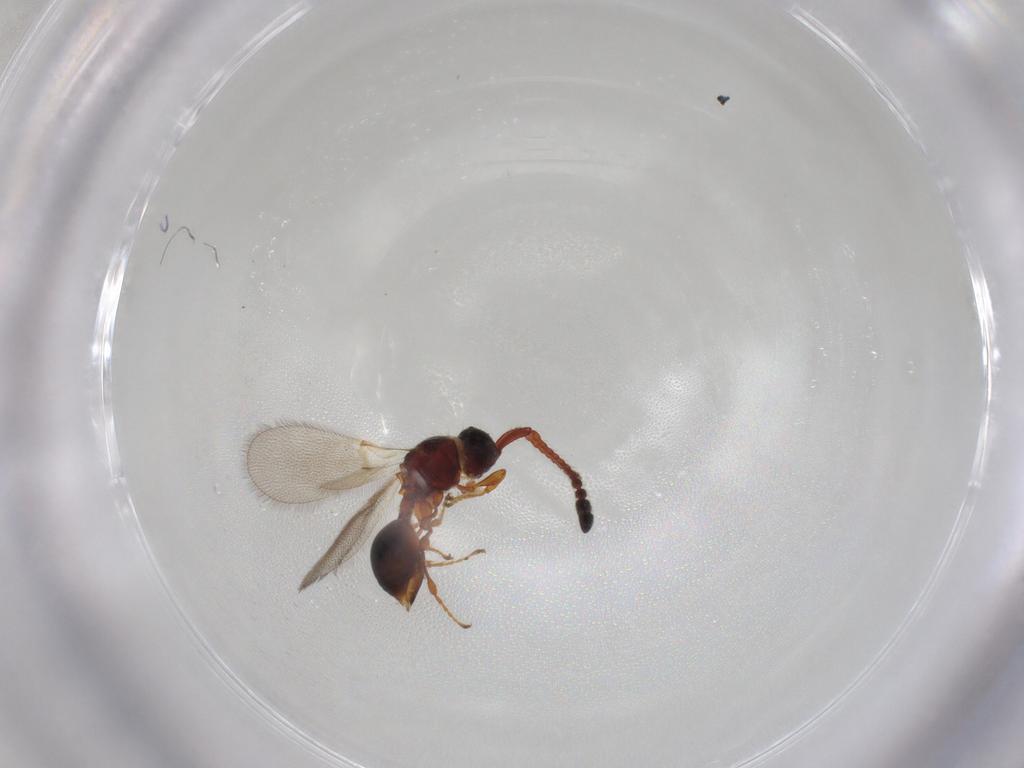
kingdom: Animalia
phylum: Arthropoda
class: Insecta
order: Hymenoptera
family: Diapriidae
